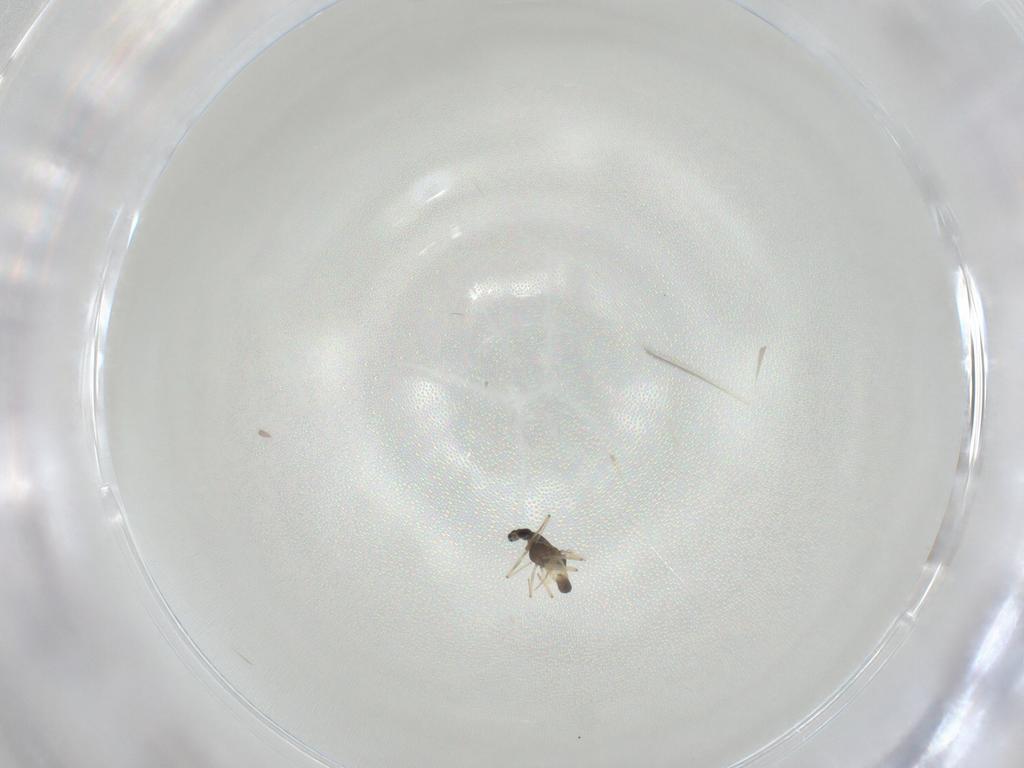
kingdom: Animalia
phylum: Arthropoda
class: Insecta
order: Diptera
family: Chironomidae
